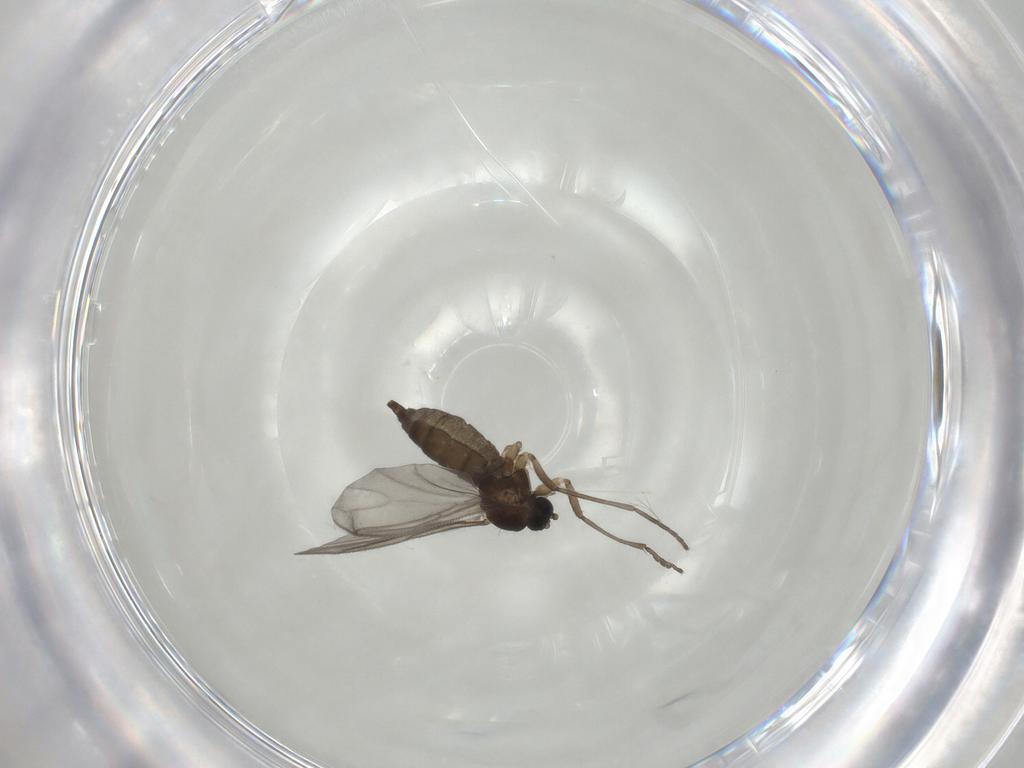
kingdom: Animalia
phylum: Arthropoda
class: Insecta
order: Diptera
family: Sciaridae
